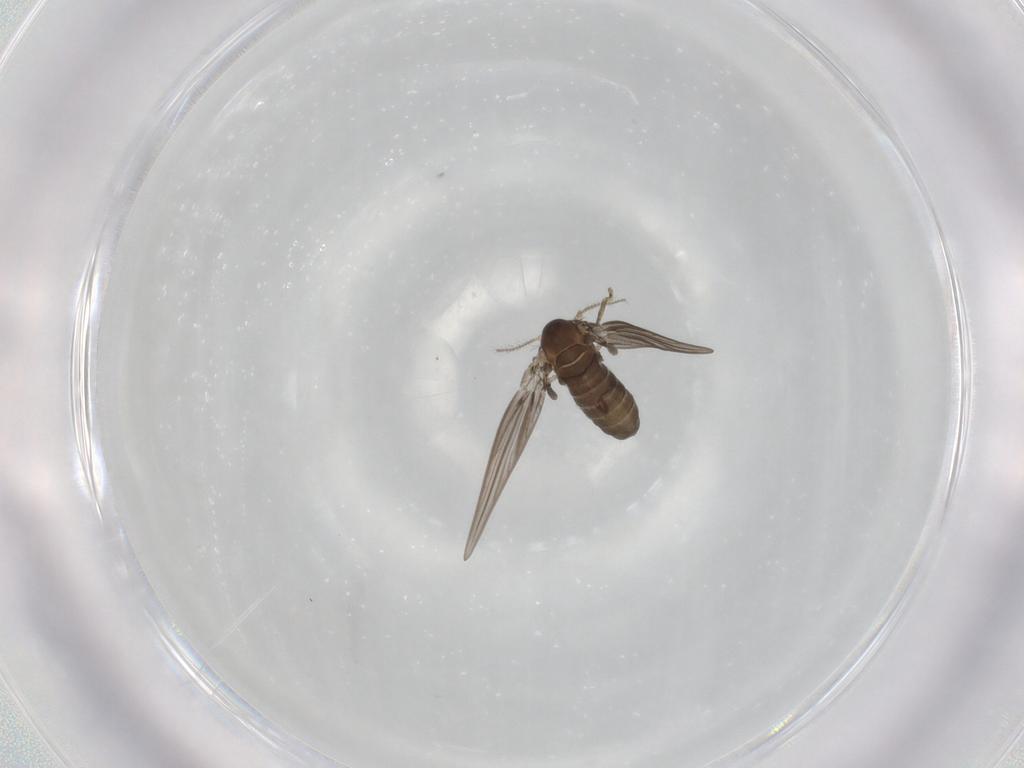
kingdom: Animalia
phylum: Arthropoda
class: Insecta
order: Diptera
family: Psychodidae
